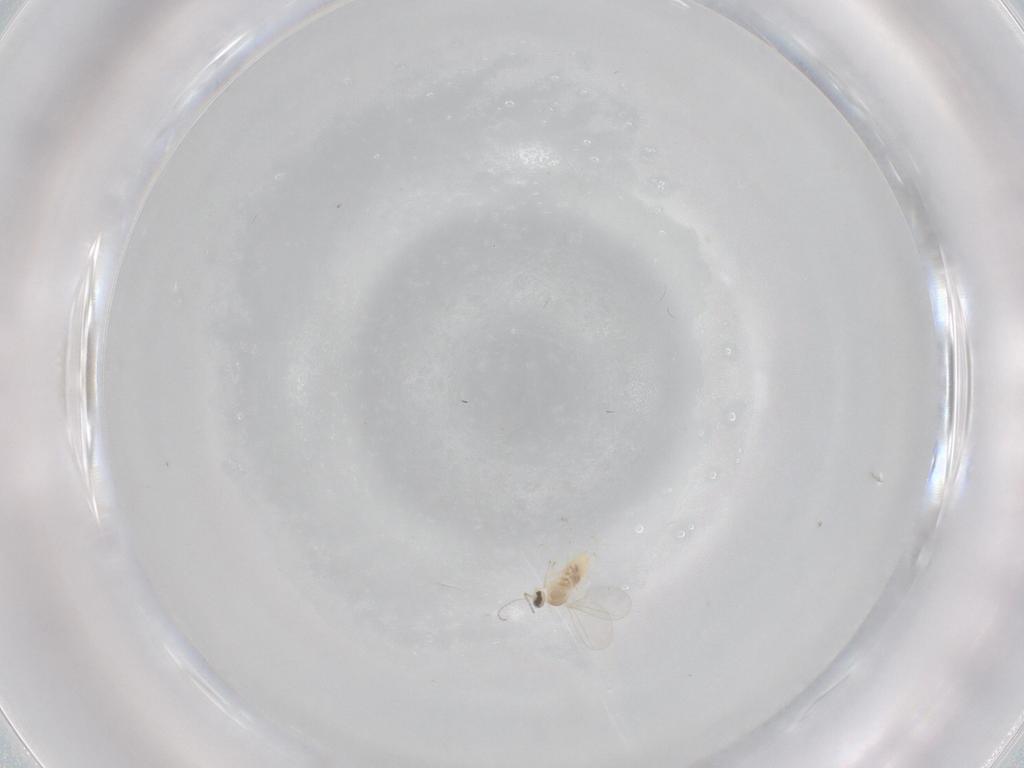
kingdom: Animalia
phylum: Arthropoda
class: Insecta
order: Diptera
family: Cecidomyiidae
